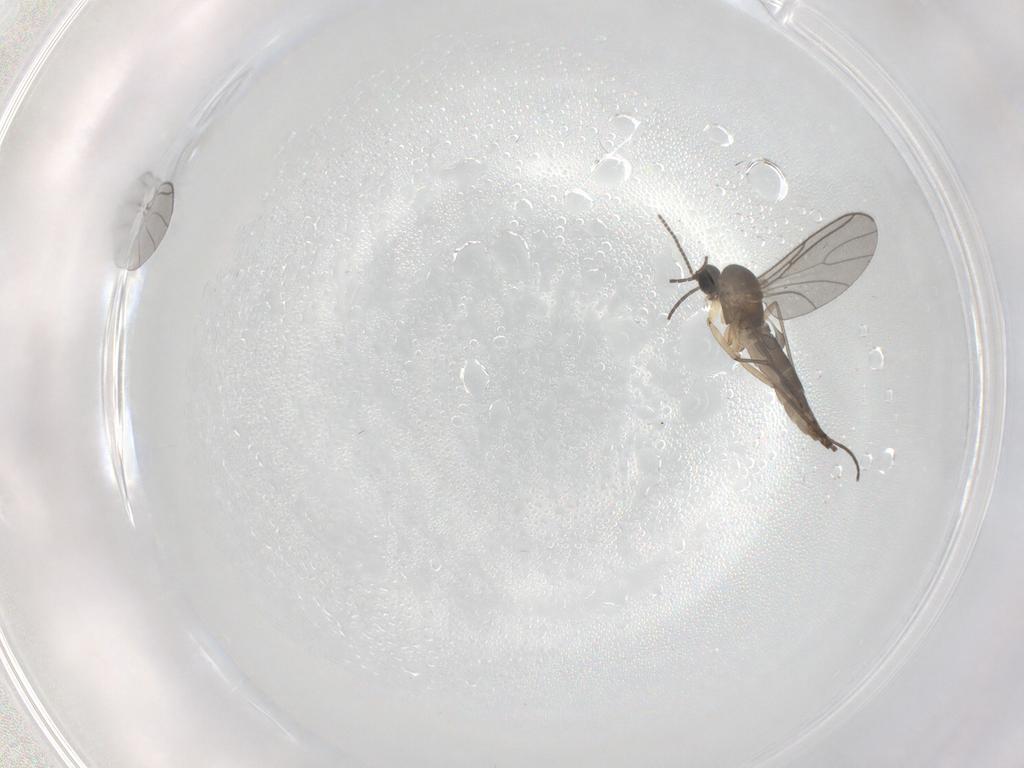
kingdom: Animalia
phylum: Arthropoda
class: Insecta
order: Diptera
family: Sciaridae
